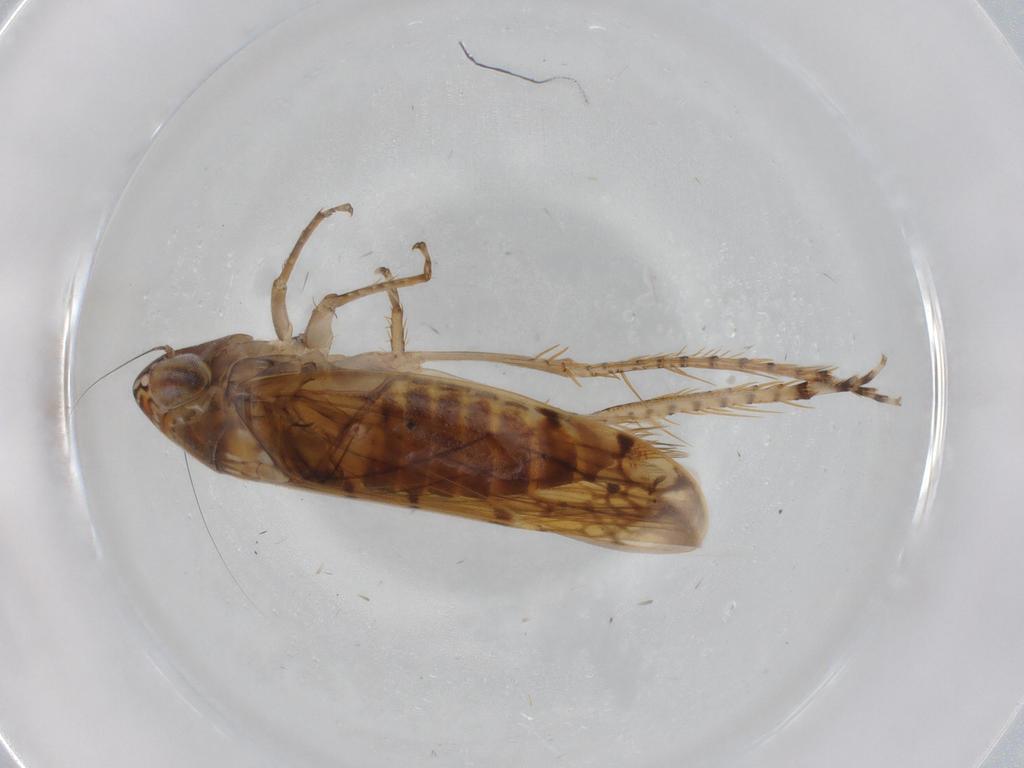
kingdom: Animalia
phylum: Arthropoda
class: Insecta
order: Hemiptera
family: Cicadellidae
